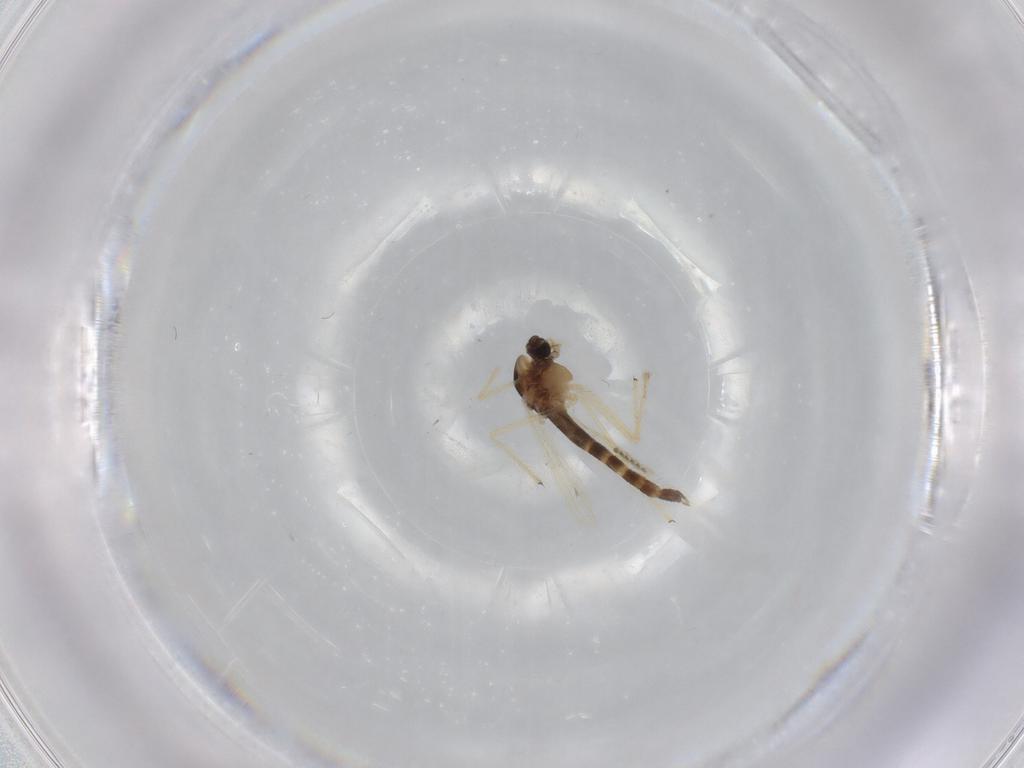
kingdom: Animalia
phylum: Arthropoda
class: Insecta
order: Diptera
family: Chironomidae
